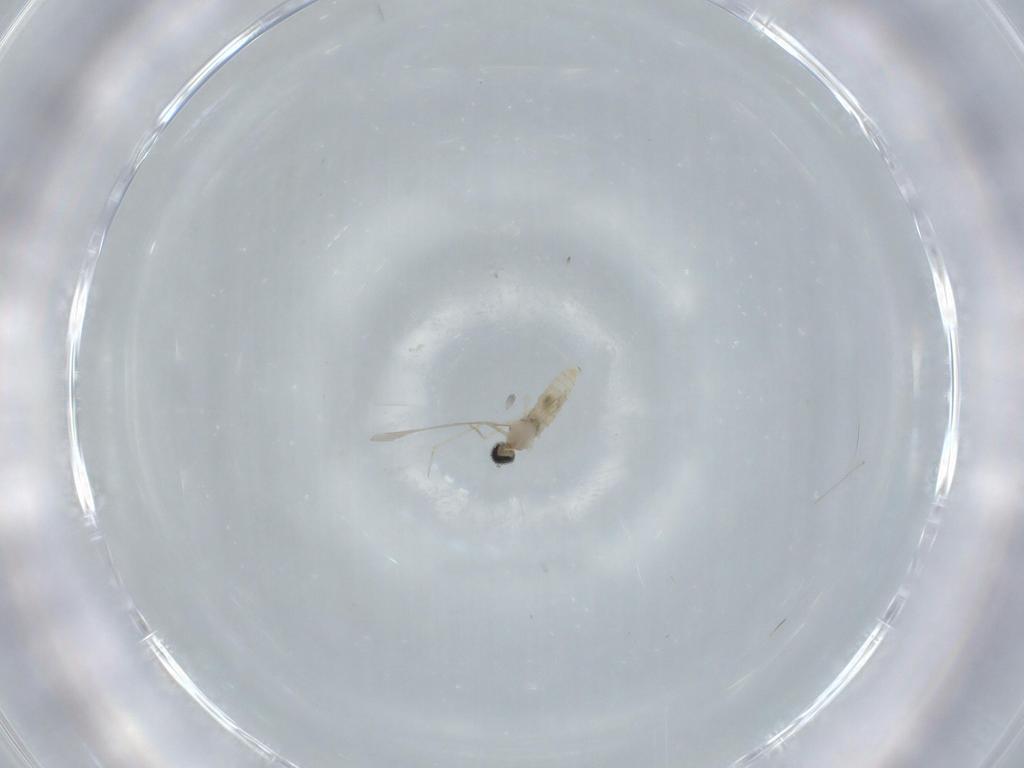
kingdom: Animalia
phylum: Arthropoda
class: Insecta
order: Diptera
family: Cecidomyiidae
